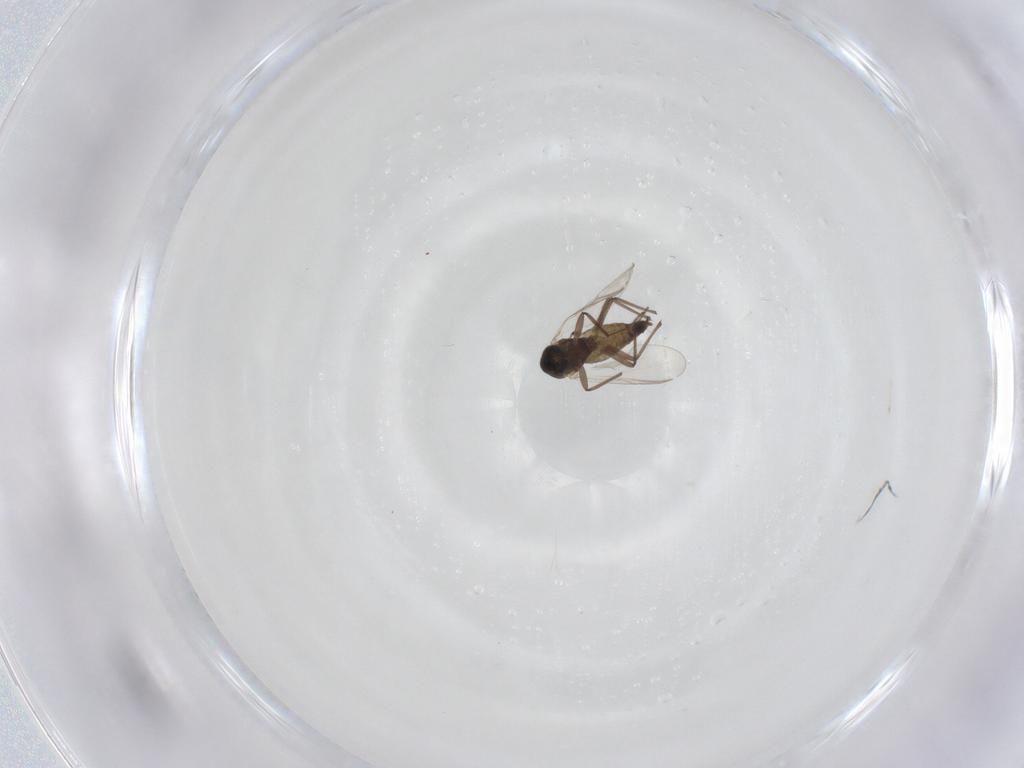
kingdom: Animalia
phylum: Arthropoda
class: Insecta
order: Diptera
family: Chironomidae
